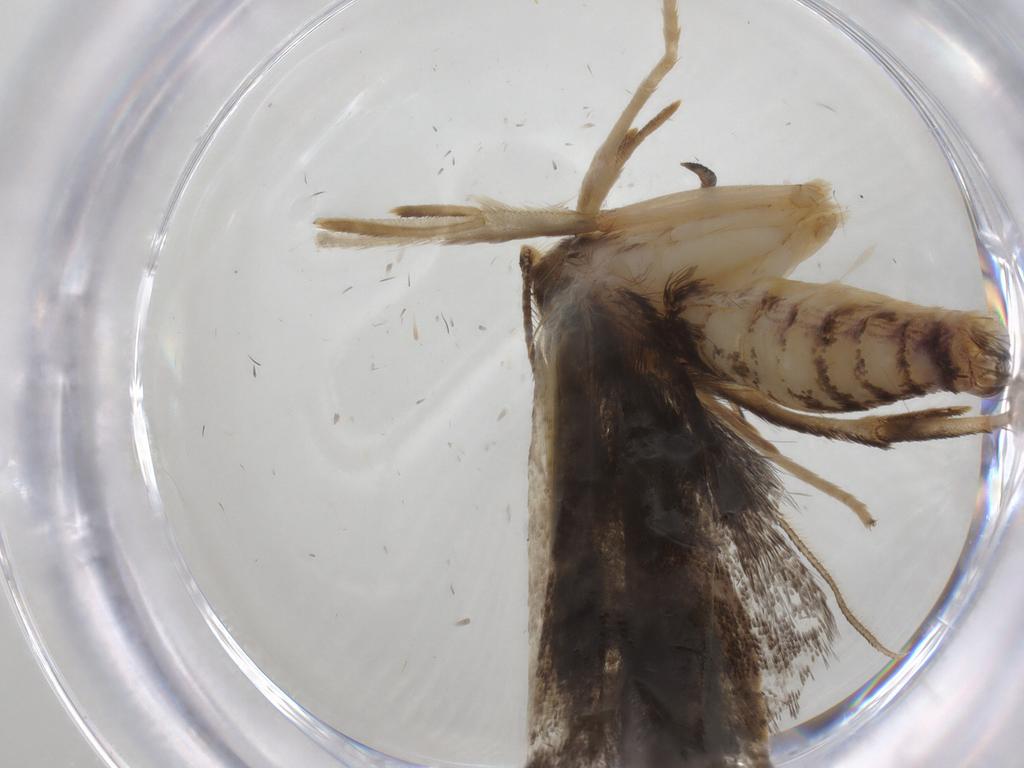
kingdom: Animalia
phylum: Arthropoda
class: Insecta
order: Lepidoptera
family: Depressariidae
